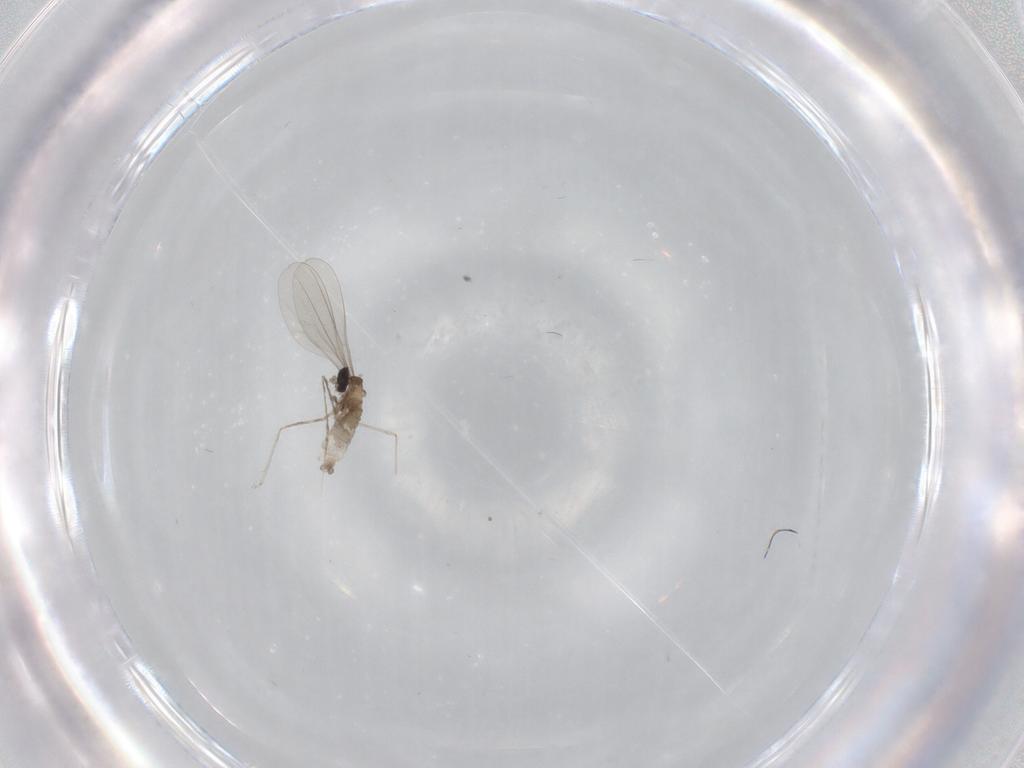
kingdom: Animalia
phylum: Arthropoda
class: Insecta
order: Diptera
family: Cecidomyiidae
